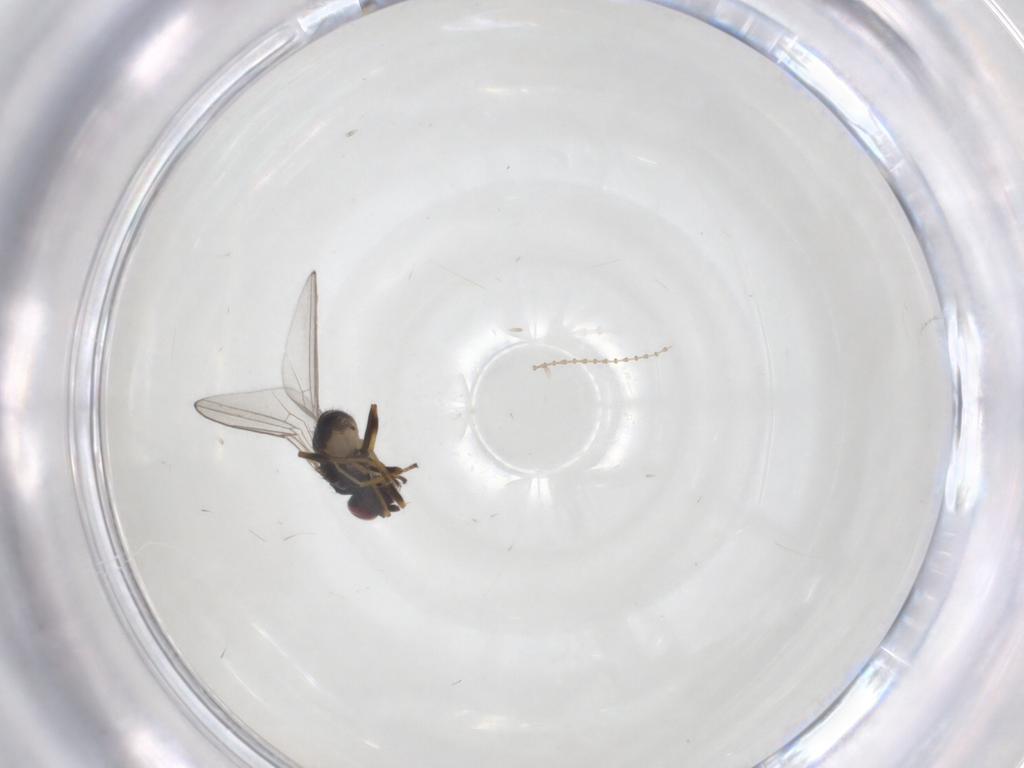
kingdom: Animalia
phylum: Arthropoda
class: Insecta
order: Diptera
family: Chloropidae
